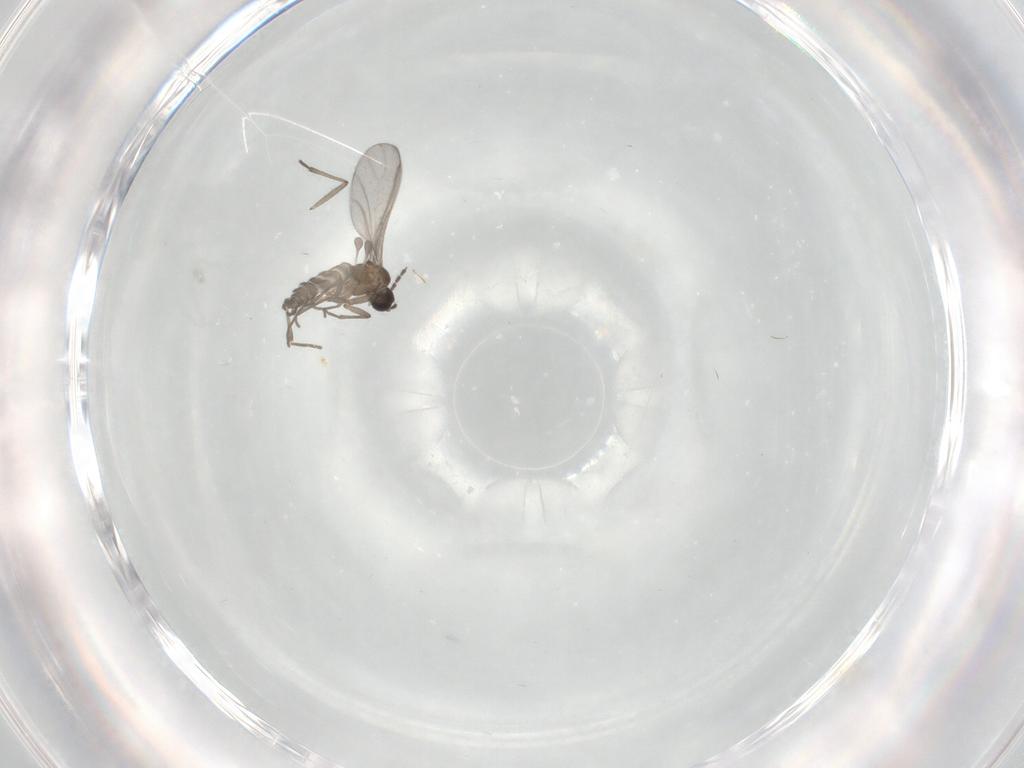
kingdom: Animalia
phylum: Arthropoda
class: Insecta
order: Diptera
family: Sciaridae
